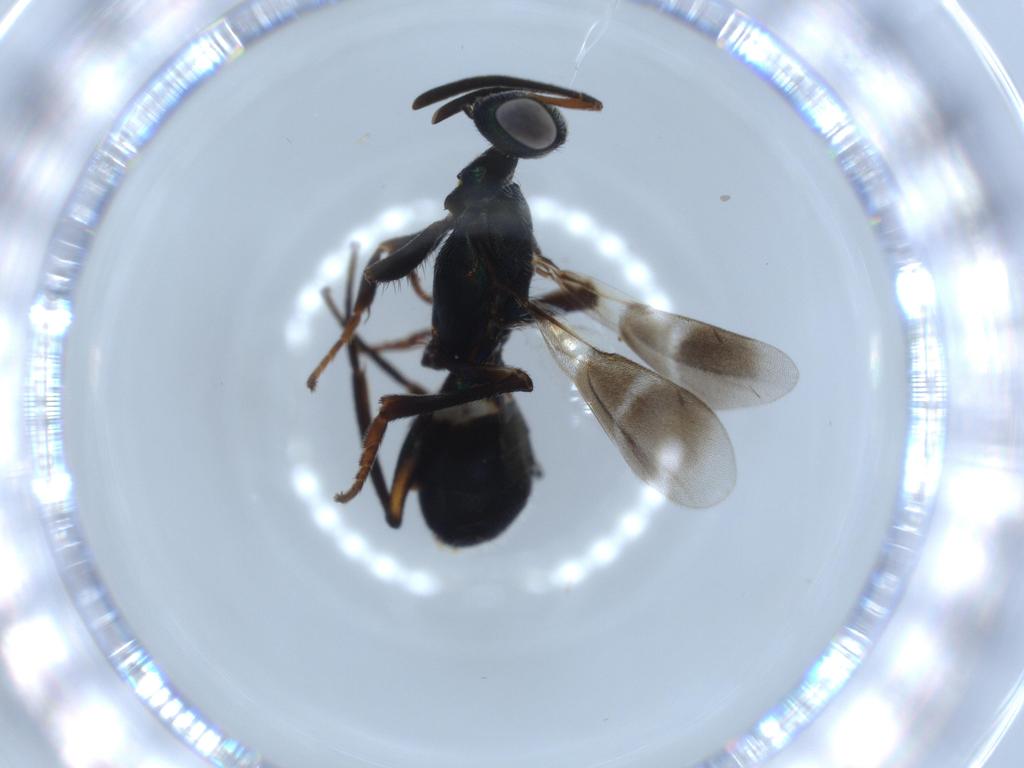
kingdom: Animalia
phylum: Arthropoda
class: Insecta
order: Hymenoptera
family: Eupelmidae
